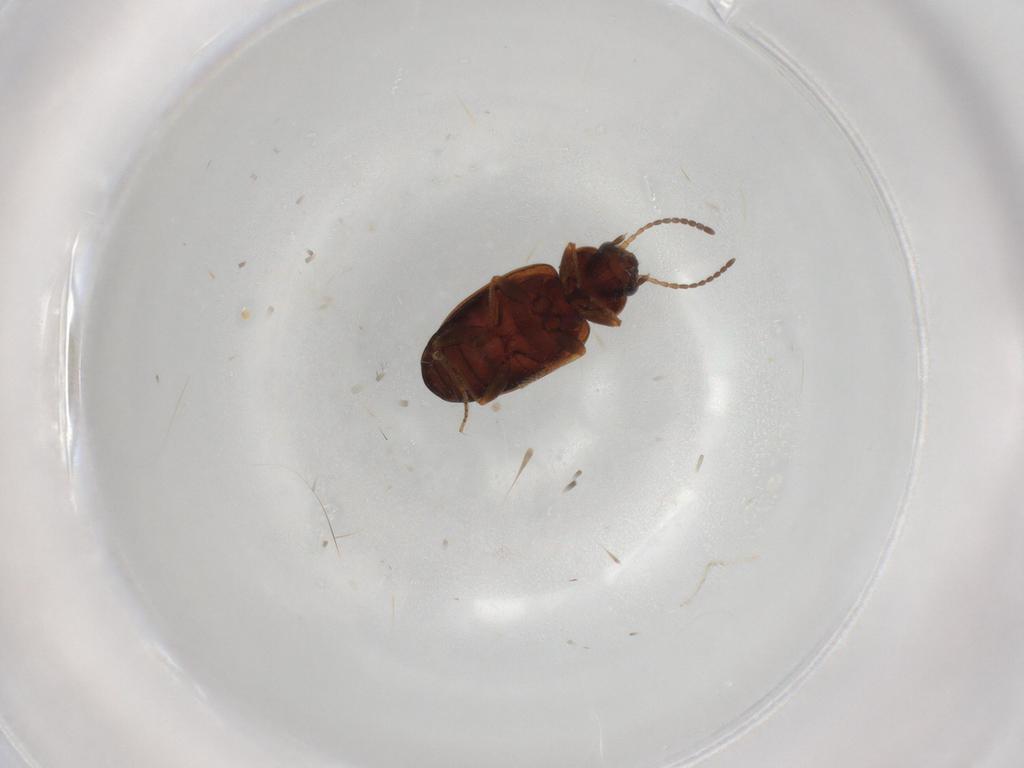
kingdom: Animalia
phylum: Arthropoda
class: Insecta
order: Coleoptera
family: Carabidae
